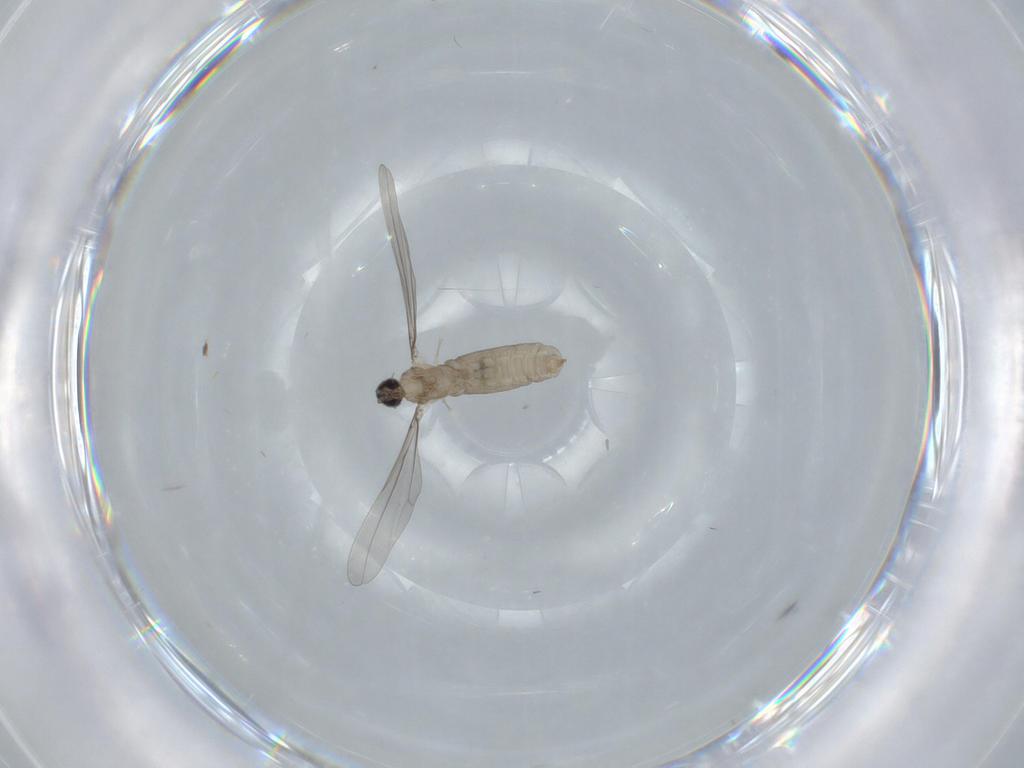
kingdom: Animalia
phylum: Arthropoda
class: Insecta
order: Diptera
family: Cecidomyiidae
